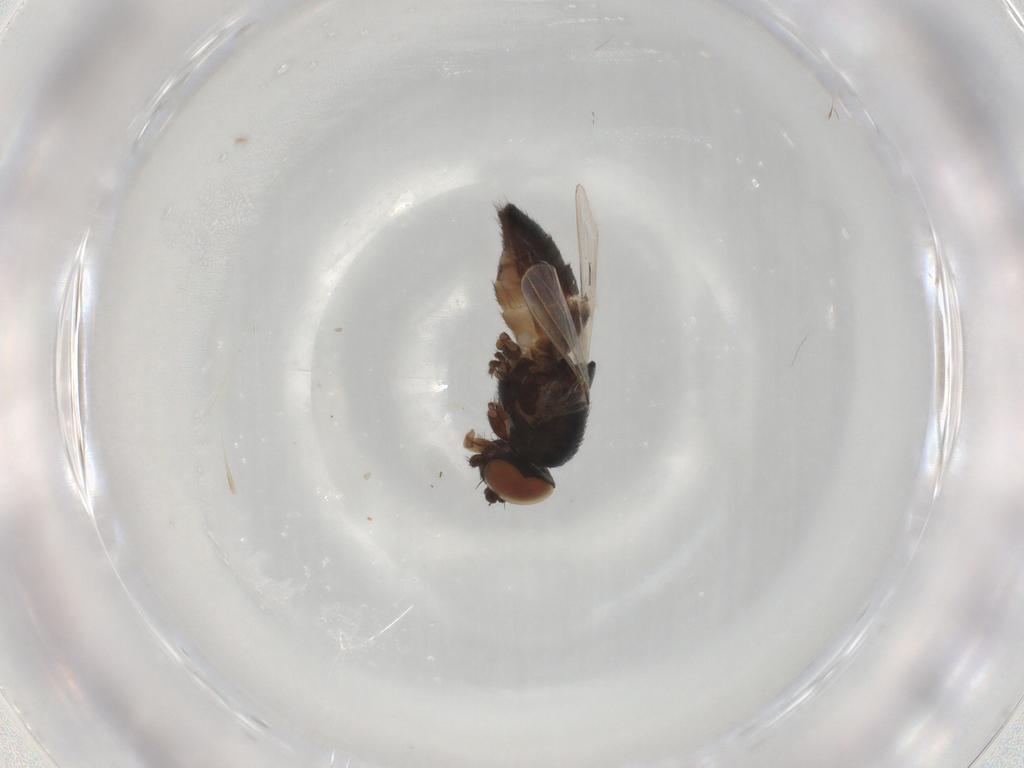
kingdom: Animalia
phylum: Arthropoda
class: Insecta
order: Diptera
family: Milichiidae
